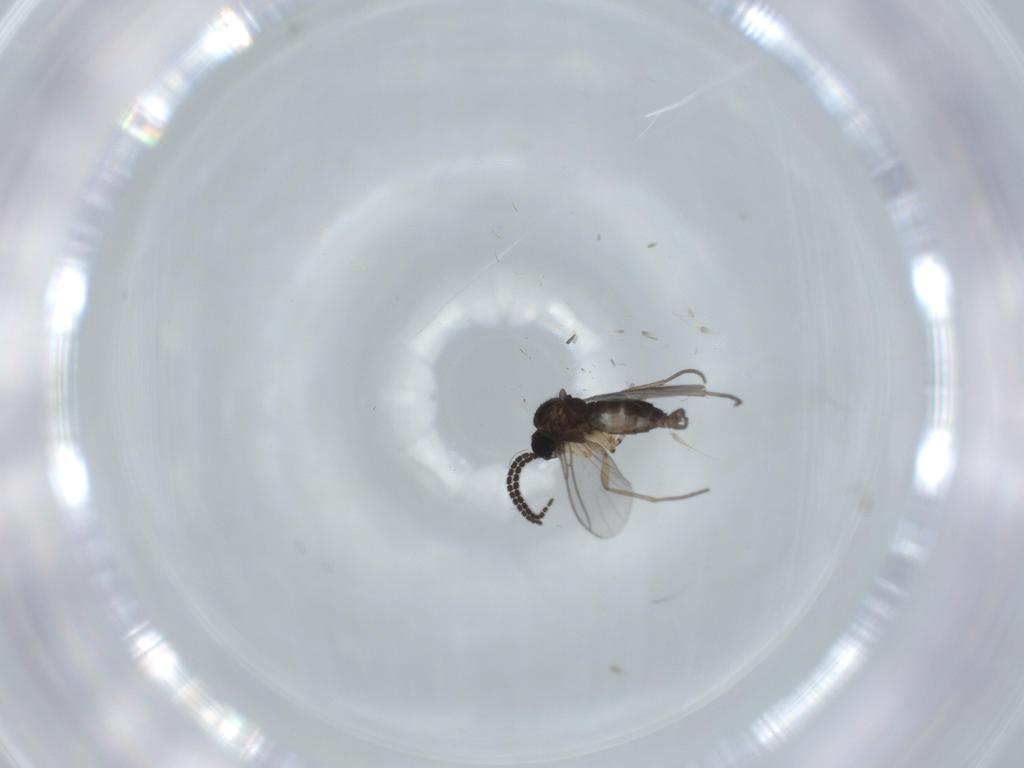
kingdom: Animalia
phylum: Arthropoda
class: Insecta
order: Diptera
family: Sciaridae
